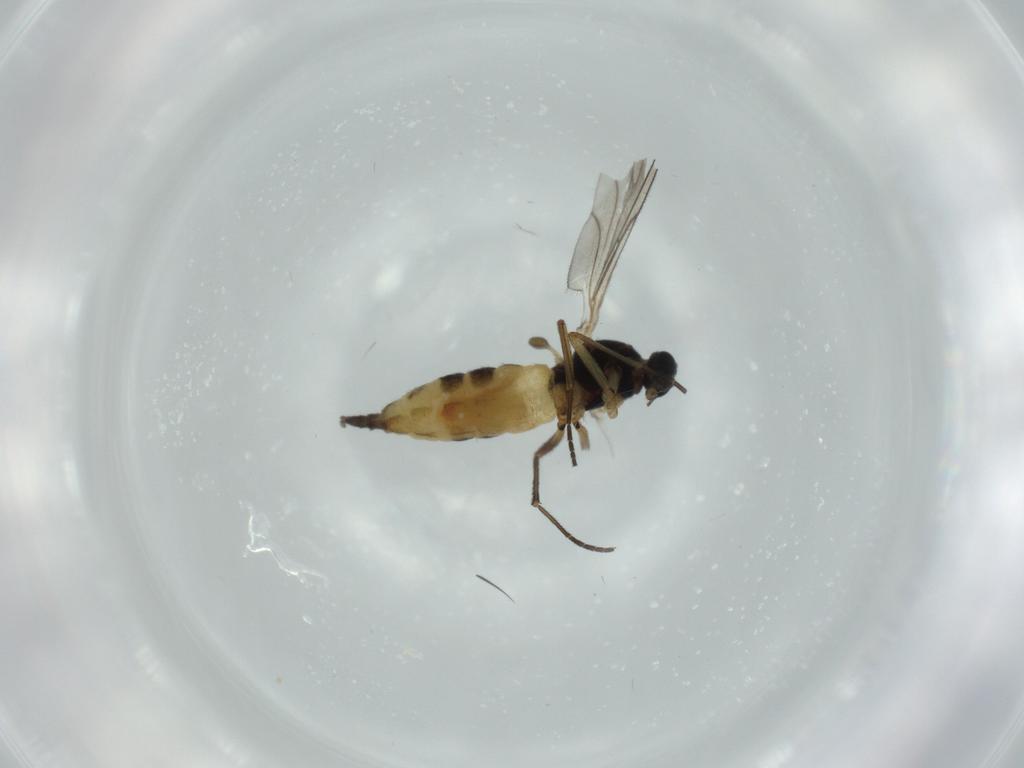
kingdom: Animalia
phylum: Arthropoda
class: Insecta
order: Diptera
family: Sciaridae
